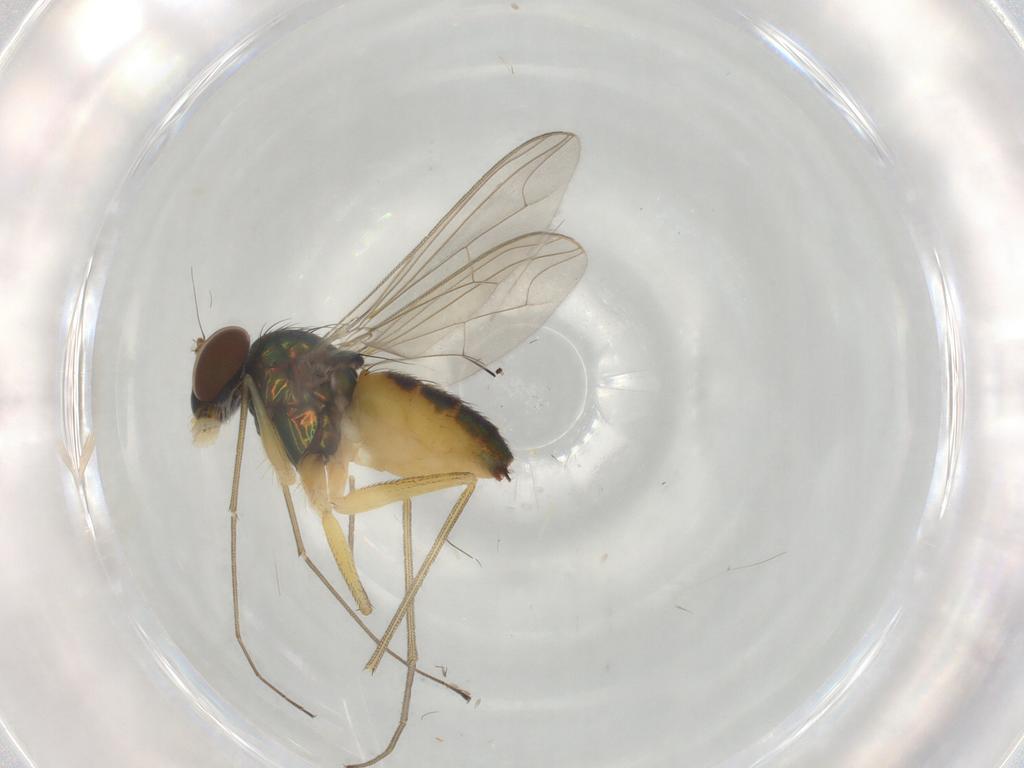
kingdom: Animalia
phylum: Arthropoda
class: Insecta
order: Diptera
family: Dolichopodidae
